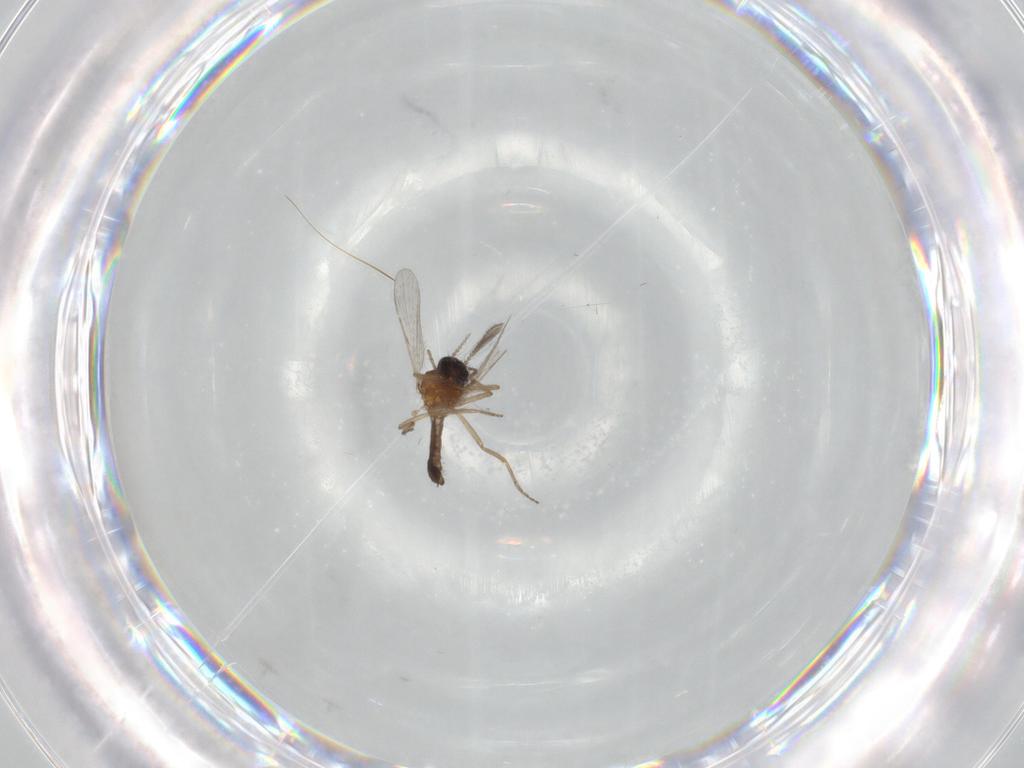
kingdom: Animalia
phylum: Arthropoda
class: Insecta
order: Diptera
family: Ceratopogonidae
